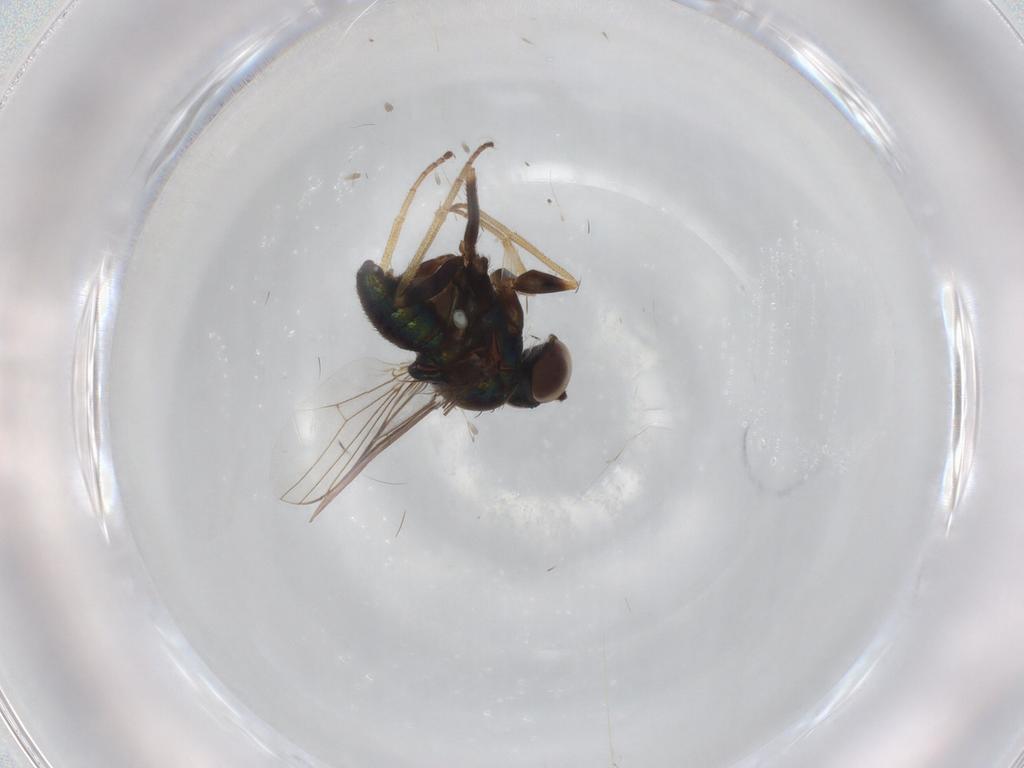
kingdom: Animalia
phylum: Arthropoda
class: Insecta
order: Diptera
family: Dolichopodidae
